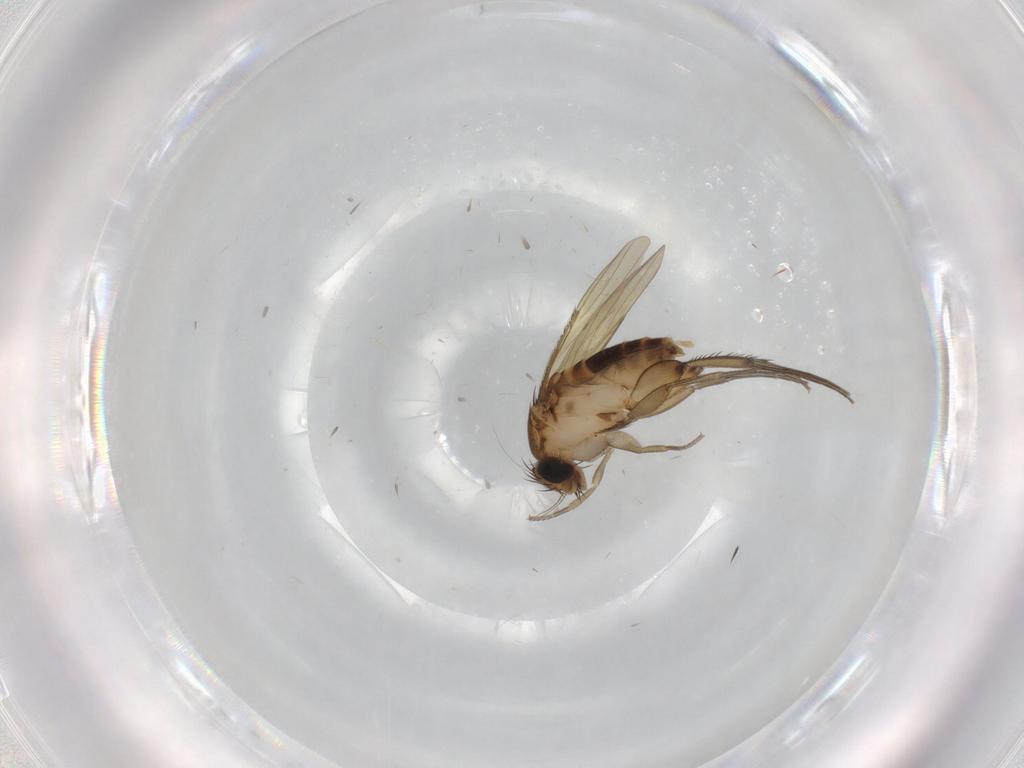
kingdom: Animalia
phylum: Arthropoda
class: Insecta
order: Diptera
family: Phoridae
